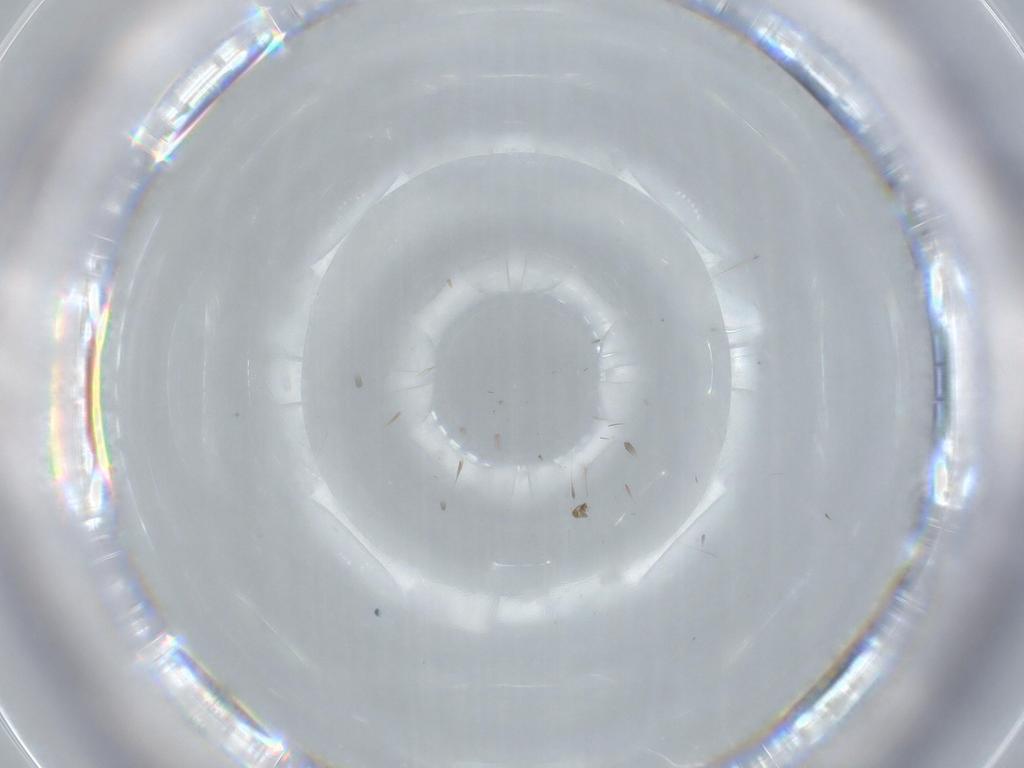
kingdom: Animalia
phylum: Arthropoda
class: Insecta
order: Hymenoptera
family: Mymaridae
